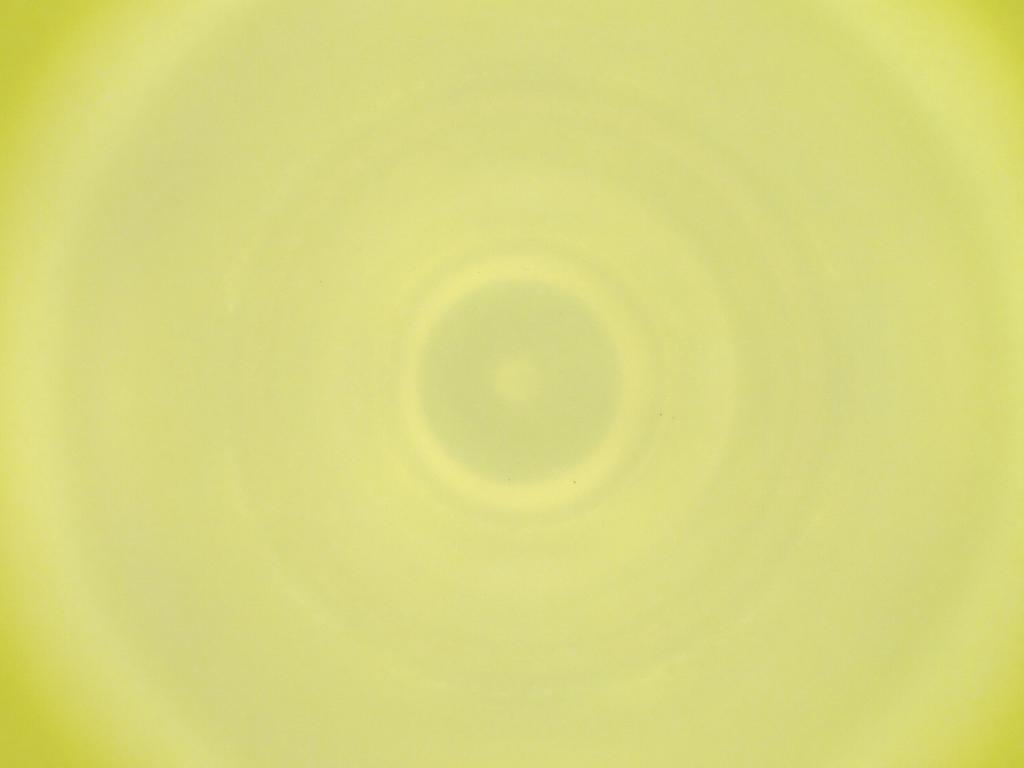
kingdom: Animalia
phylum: Arthropoda
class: Insecta
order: Diptera
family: Cecidomyiidae
